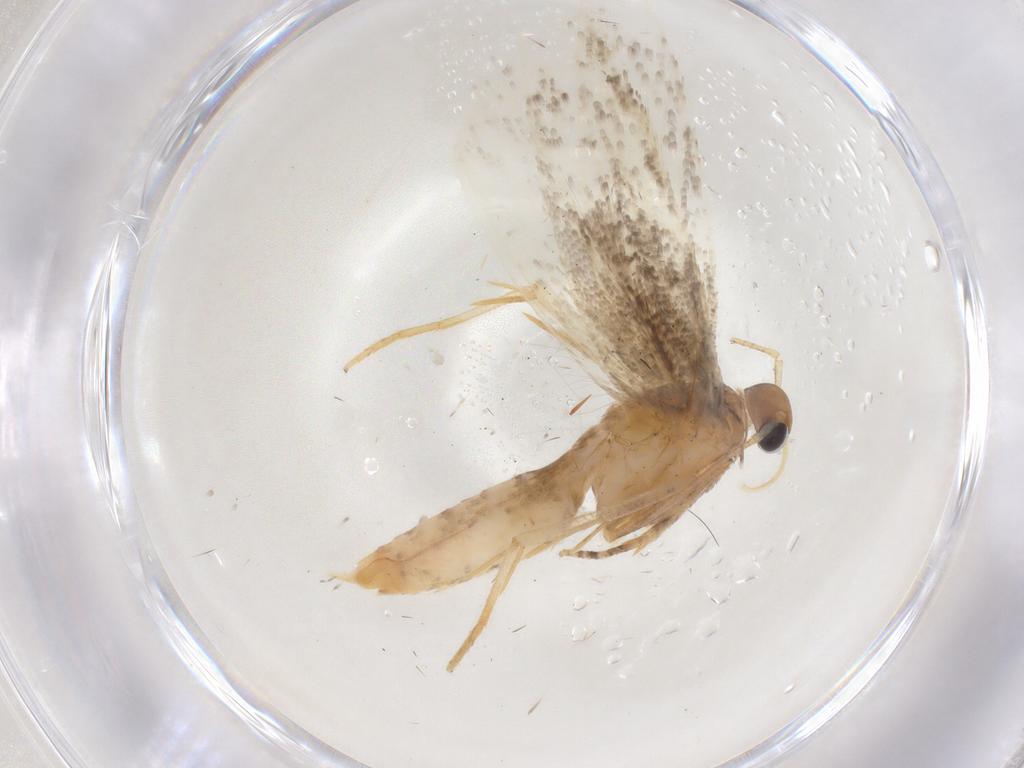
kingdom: Animalia
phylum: Arthropoda
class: Insecta
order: Lepidoptera
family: Gelechiidae
